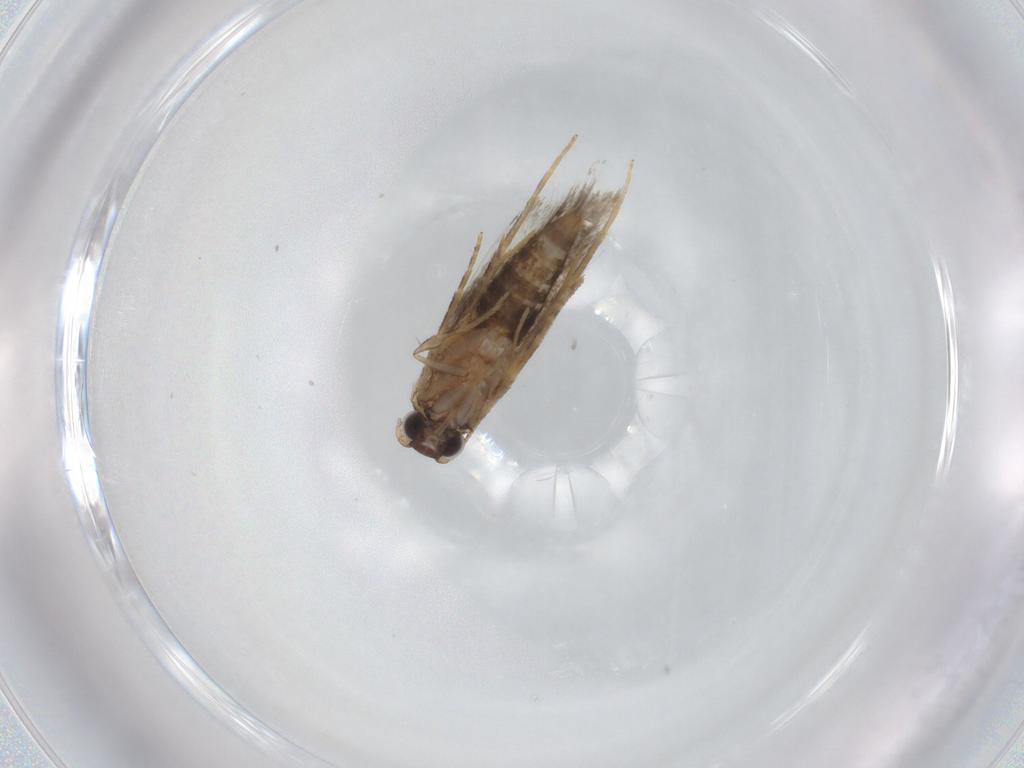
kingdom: Animalia
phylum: Arthropoda
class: Insecta
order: Lepidoptera
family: Tineidae
